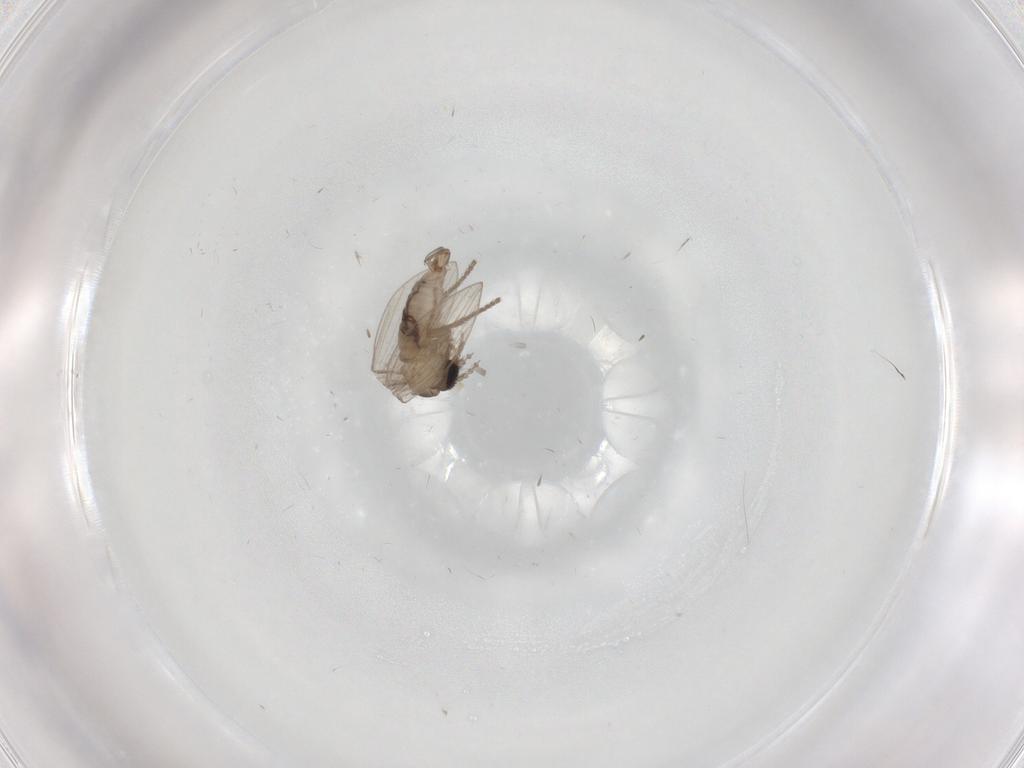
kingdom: Animalia
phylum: Arthropoda
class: Insecta
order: Diptera
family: Psychodidae
